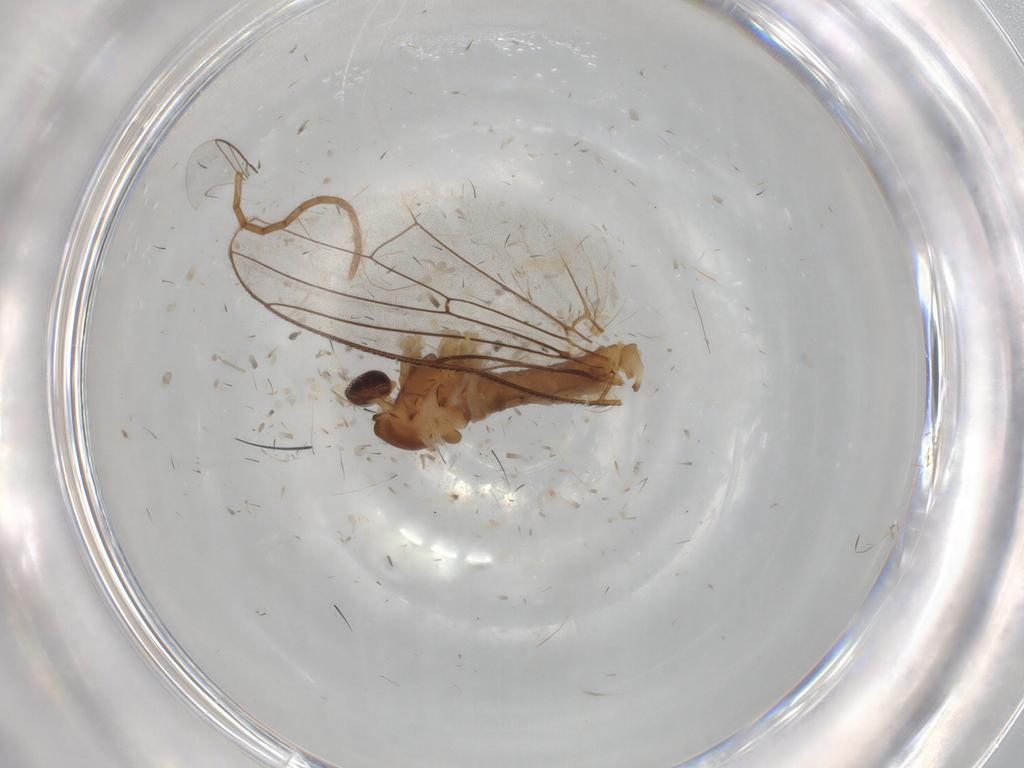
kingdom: Animalia
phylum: Arthropoda
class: Insecta
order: Diptera
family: Cecidomyiidae
